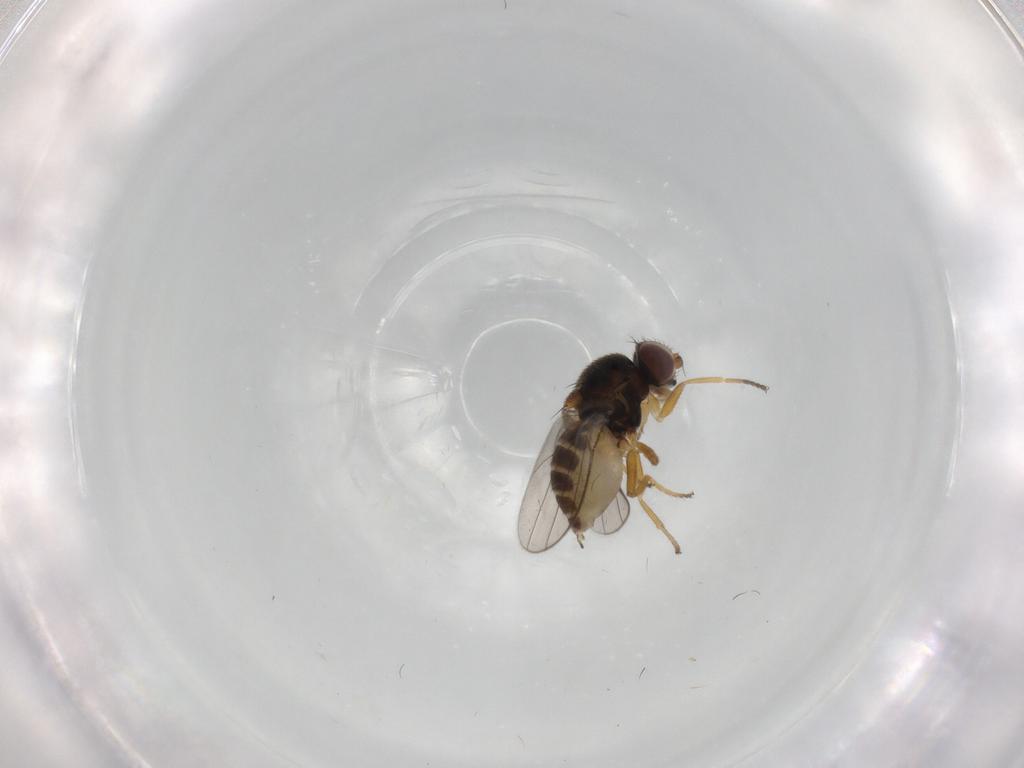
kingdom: Animalia
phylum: Arthropoda
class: Insecta
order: Diptera
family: Chloropidae
